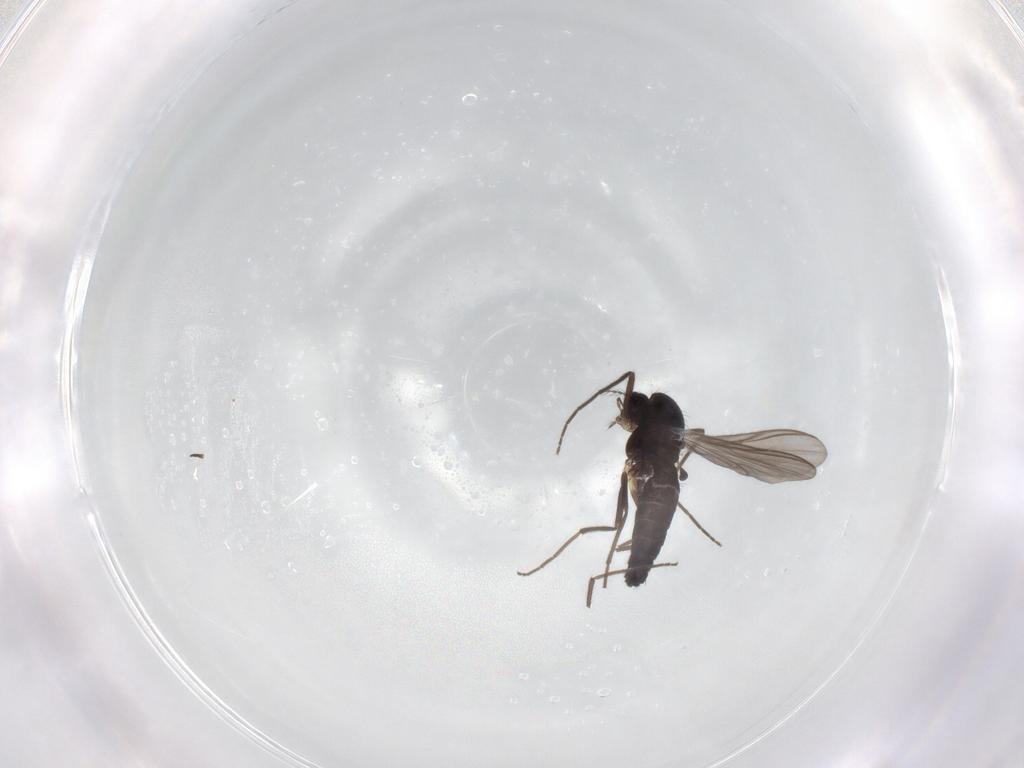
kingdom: Animalia
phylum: Arthropoda
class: Insecta
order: Diptera
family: Chironomidae
